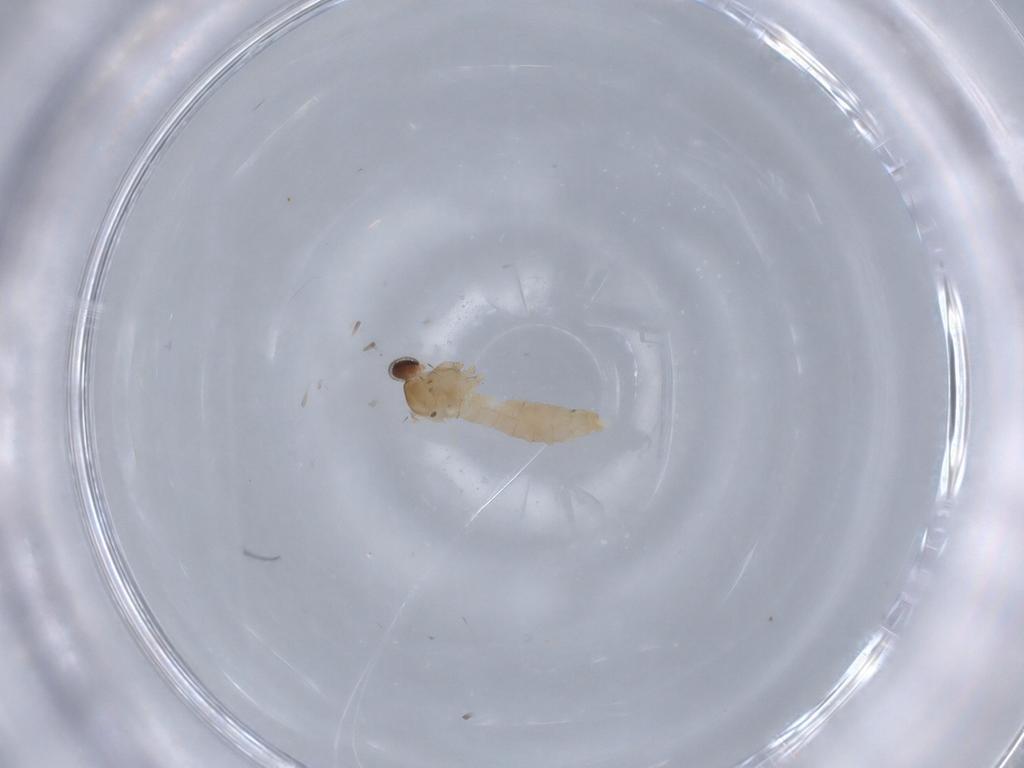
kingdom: Animalia
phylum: Arthropoda
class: Insecta
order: Diptera
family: Cecidomyiidae
